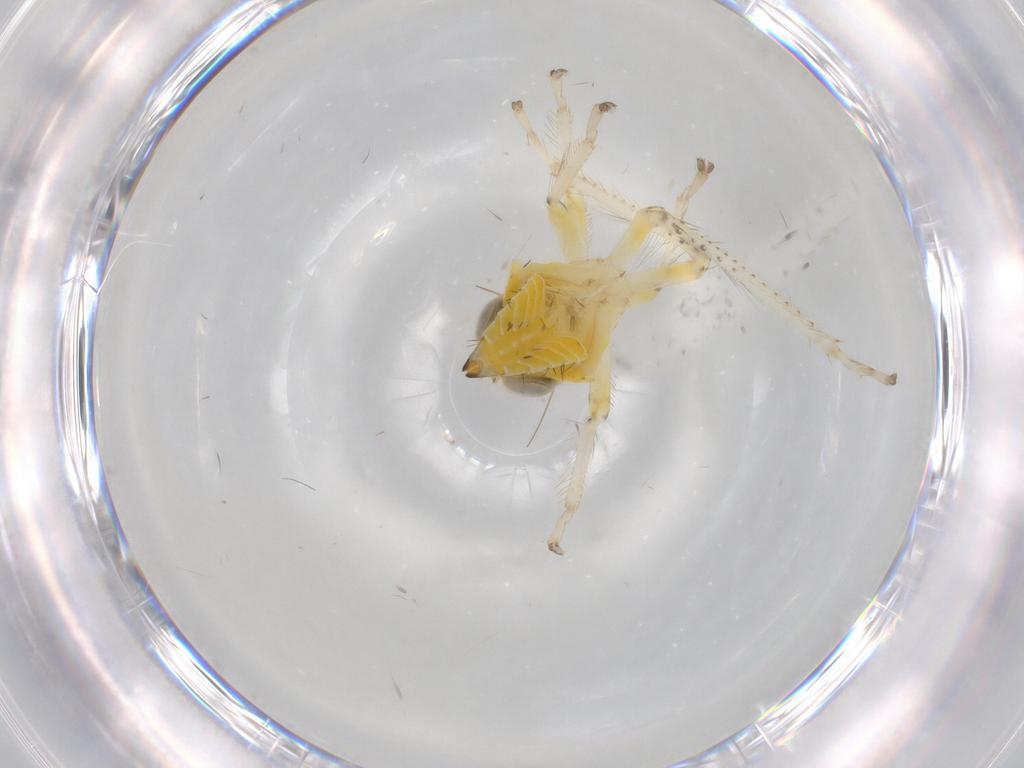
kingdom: Animalia
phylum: Arthropoda
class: Insecta
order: Hemiptera
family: Cicadellidae
